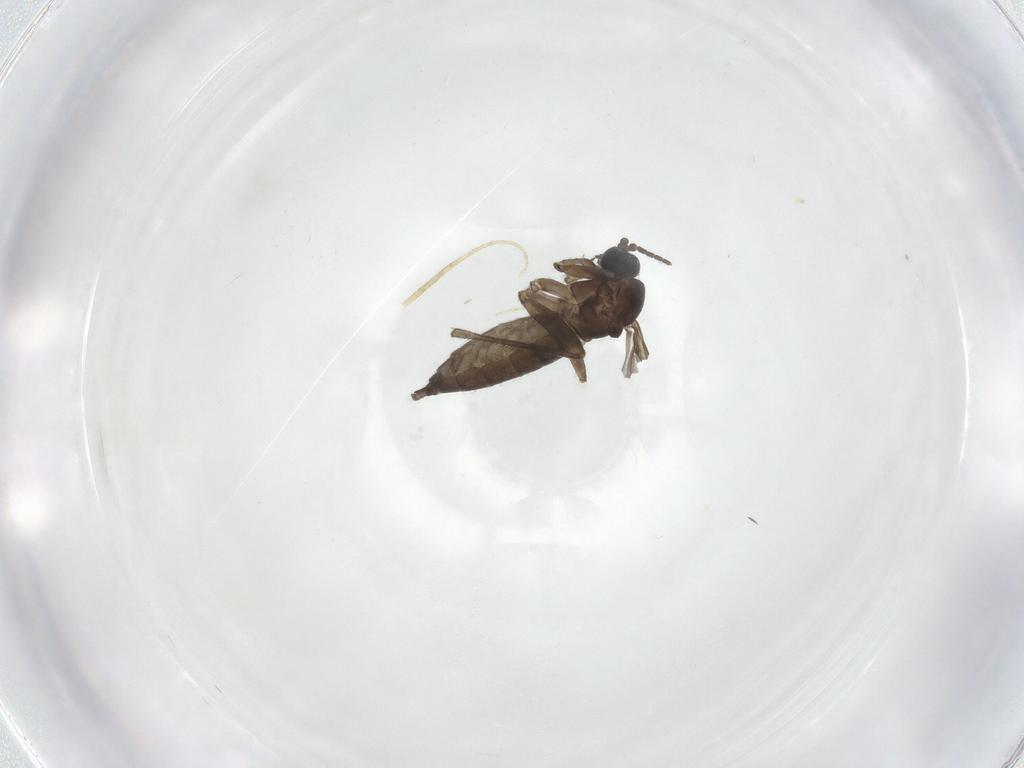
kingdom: Animalia
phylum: Arthropoda
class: Insecta
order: Diptera
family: Sciaridae
